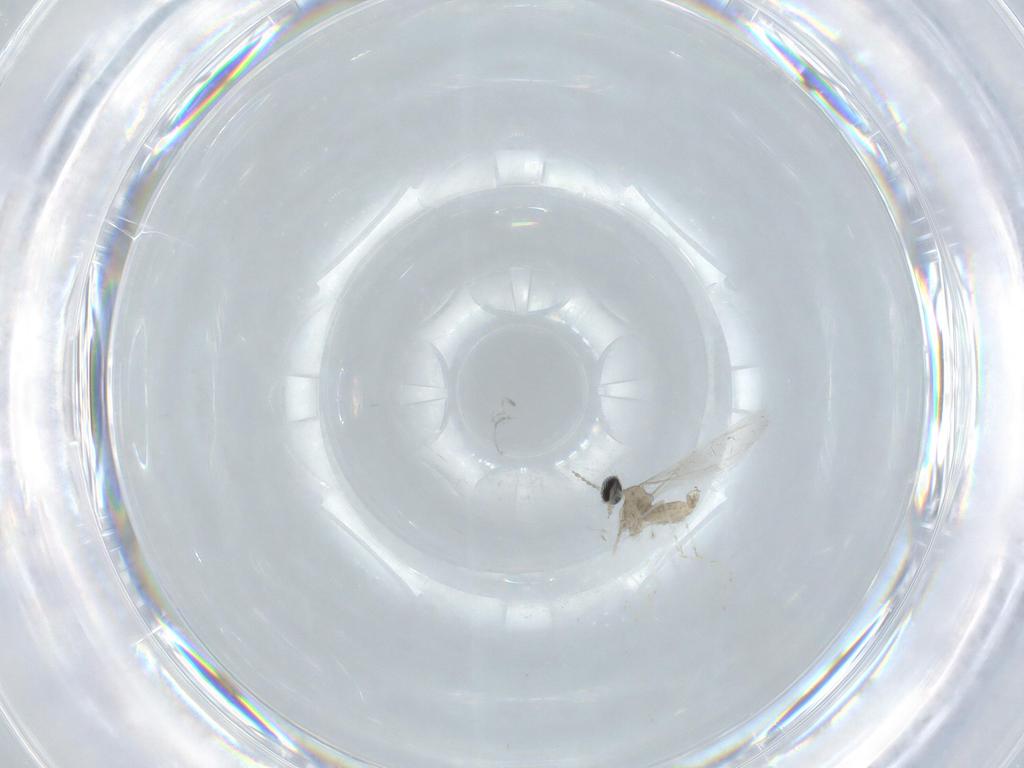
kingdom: Animalia
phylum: Arthropoda
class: Insecta
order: Diptera
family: Cecidomyiidae
